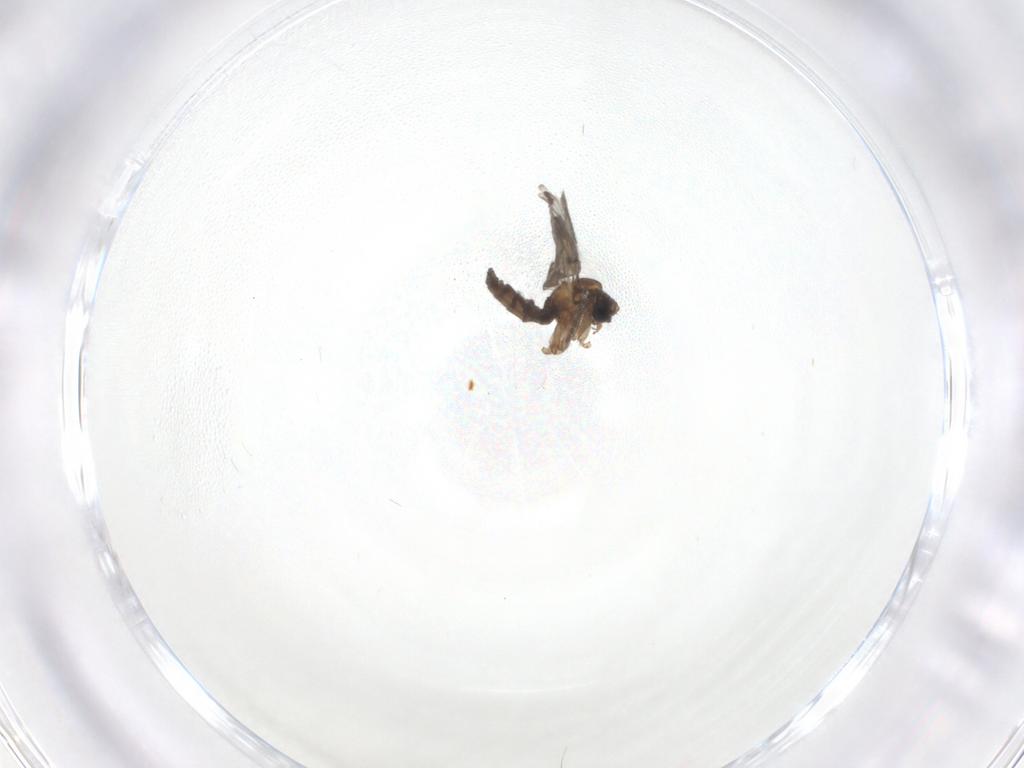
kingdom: Animalia
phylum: Arthropoda
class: Insecta
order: Diptera
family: Sciaridae
